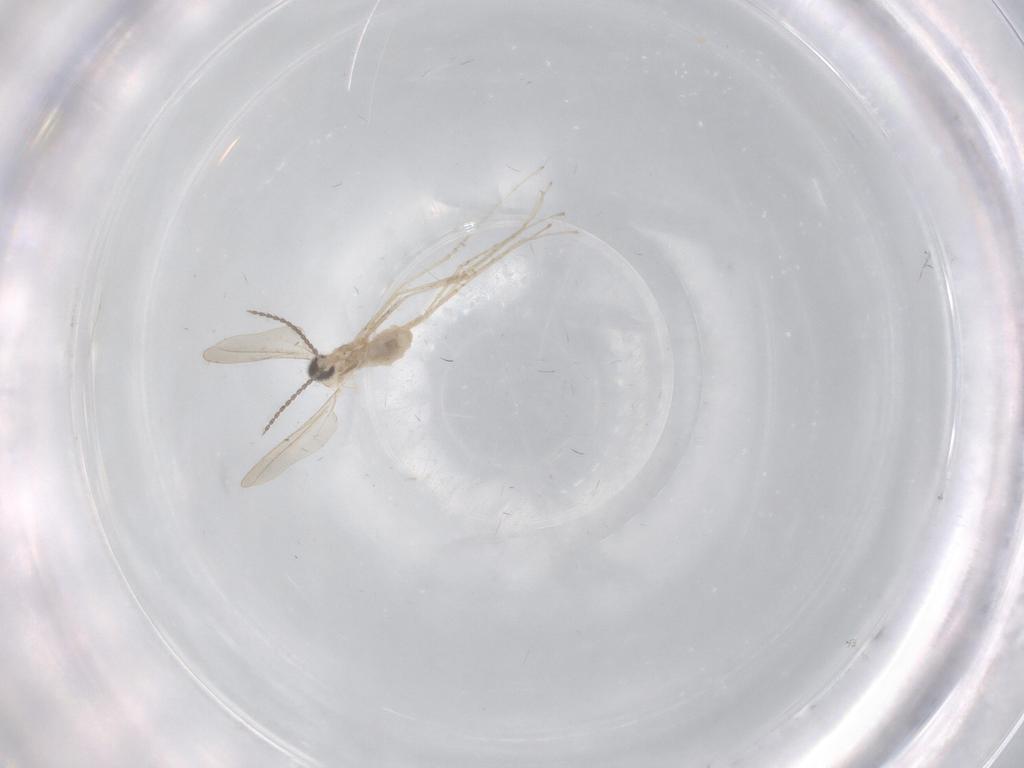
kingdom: Animalia
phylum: Arthropoda
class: Insecta
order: Diptera
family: Cecidomyiidae
